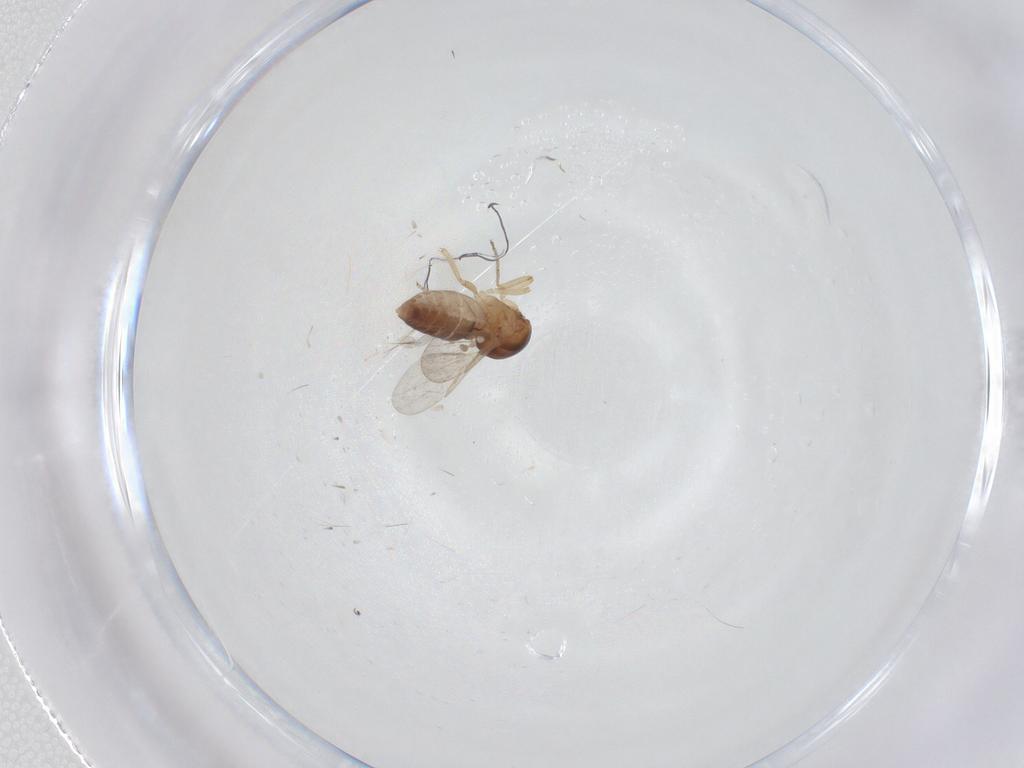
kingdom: Animalia
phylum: Arthropoda
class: Insecta
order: Diptera
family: Ceratopogonidae
